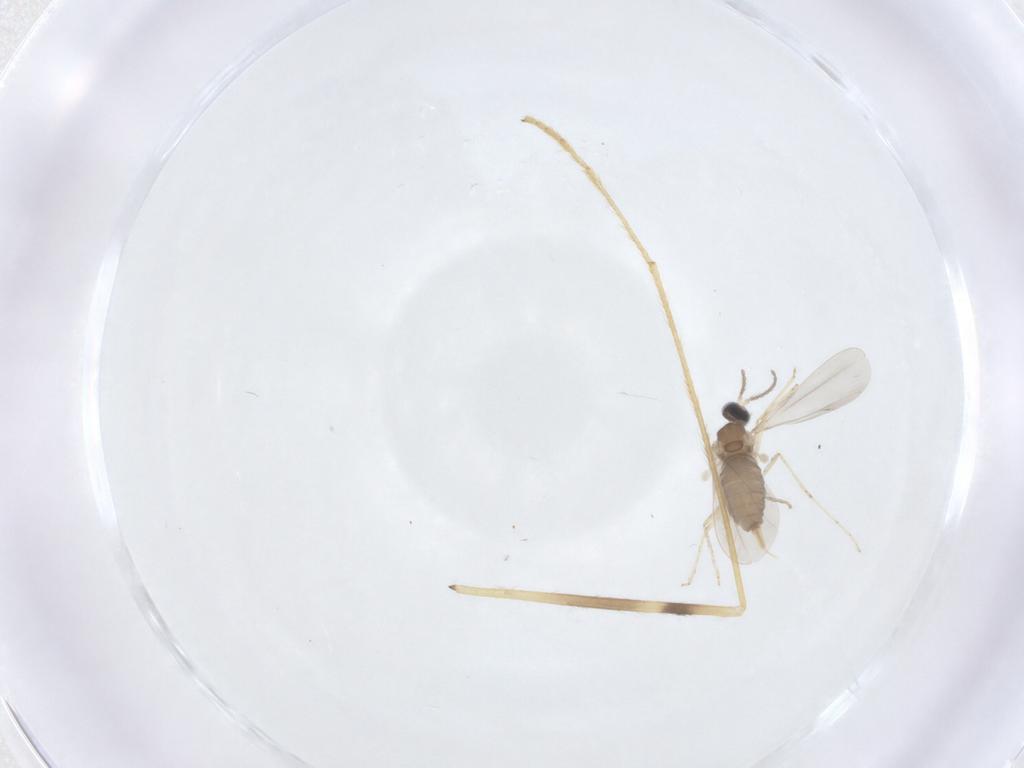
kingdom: Animalia
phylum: Arthropoda
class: Insecta
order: Diptera
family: Cecidomyiidae
